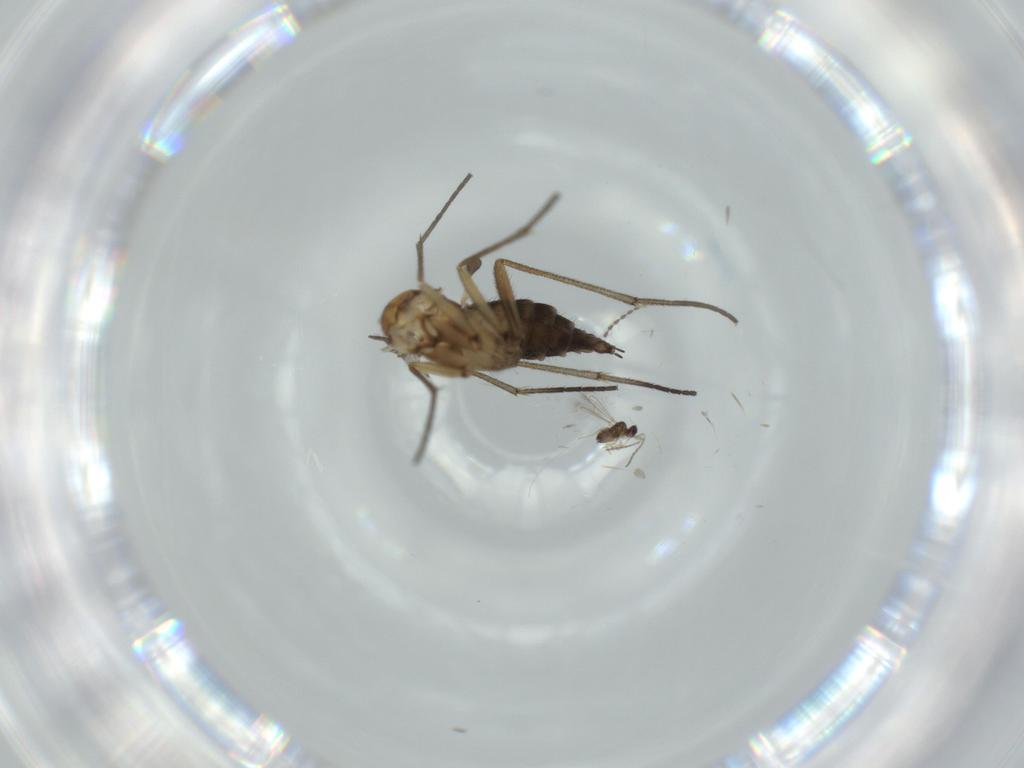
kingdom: Animalia
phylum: Arthropoda
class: Insecta
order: Diptera
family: Sciaridae
